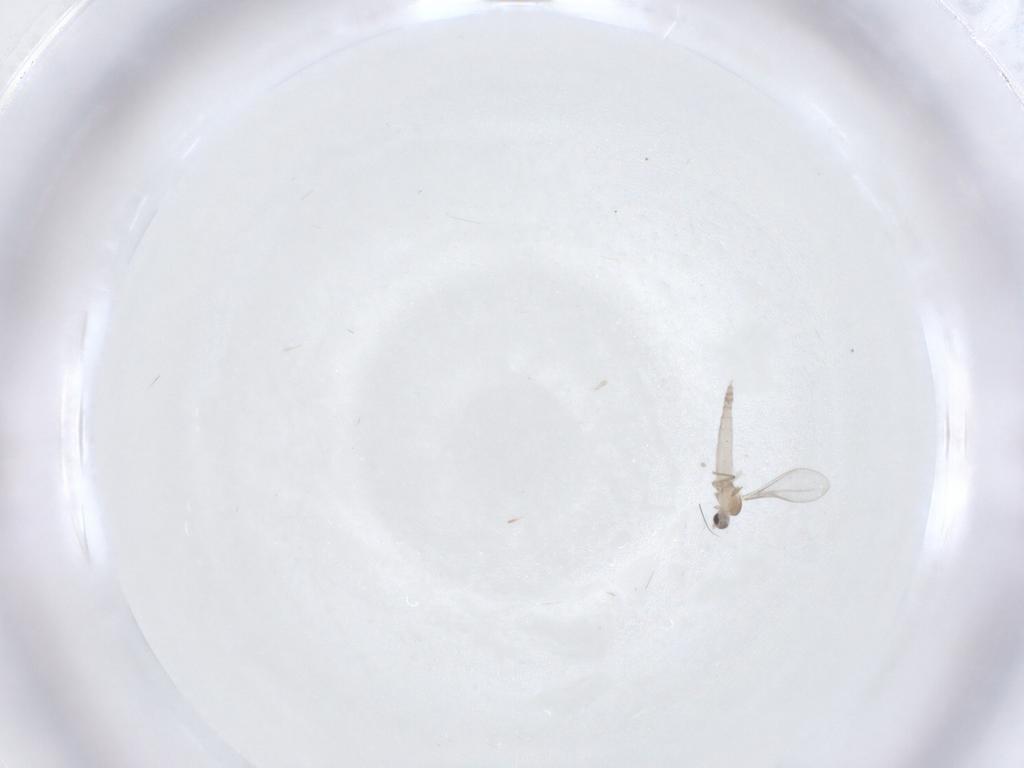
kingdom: Animalia
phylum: Arthropoda
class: Insecta
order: Diptera
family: Cecidomyiidae
